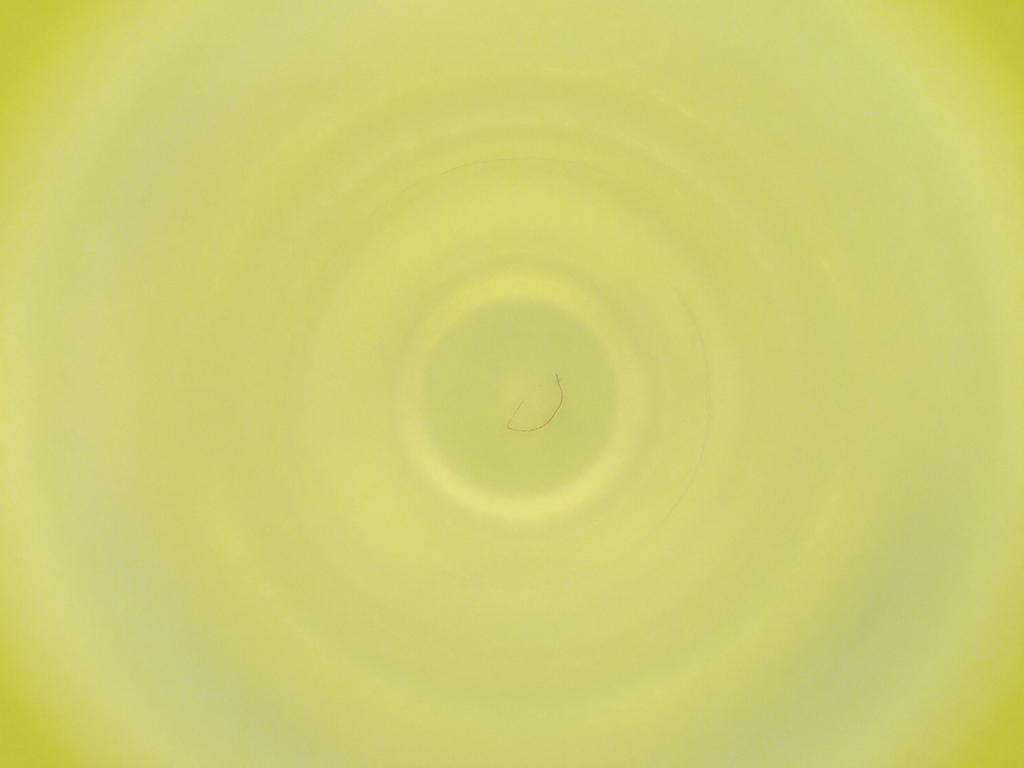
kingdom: Animalia
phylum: Arthropoda
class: Insecta
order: Diptera
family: Cecidomyiidae
